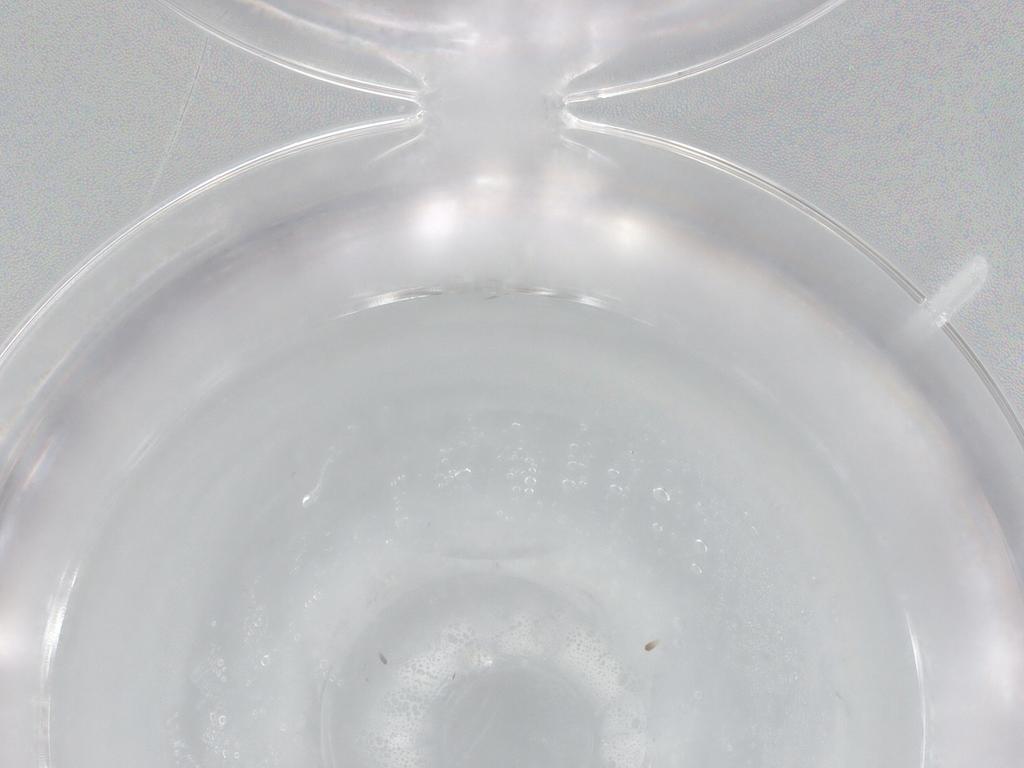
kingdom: Animalia
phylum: Arthropoda
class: Insecta
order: Diptera
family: Ceratopogonidae
